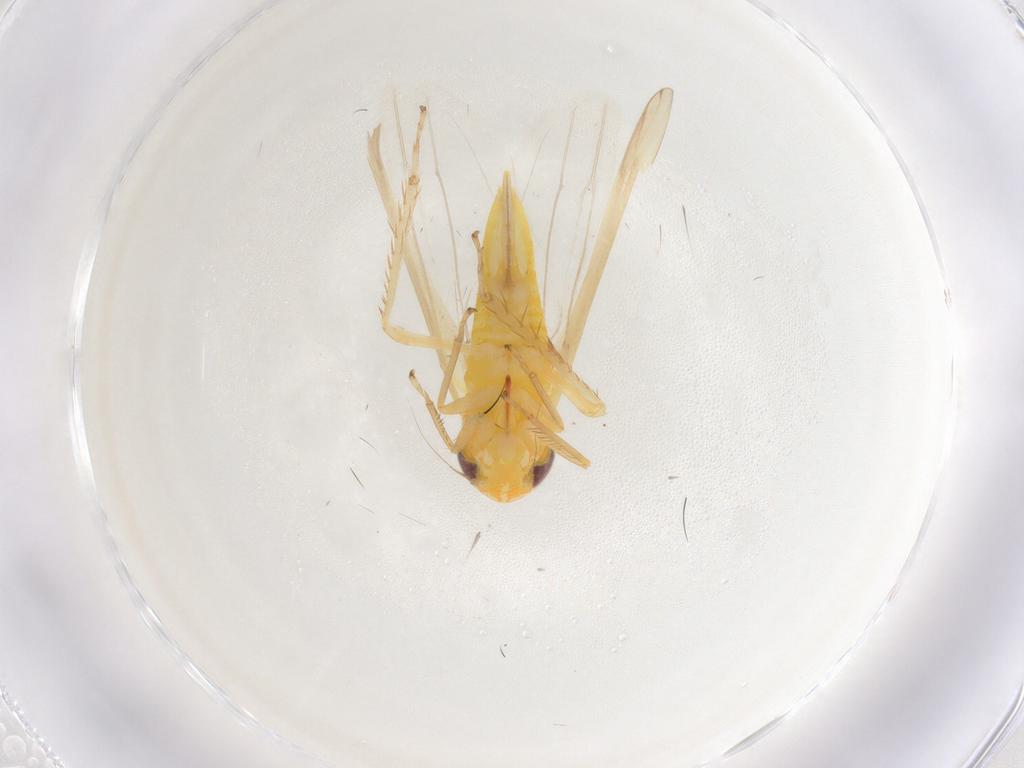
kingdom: Animalia
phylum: Arthropoda
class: Insecta
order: Hemiptera
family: Cicadellidae
